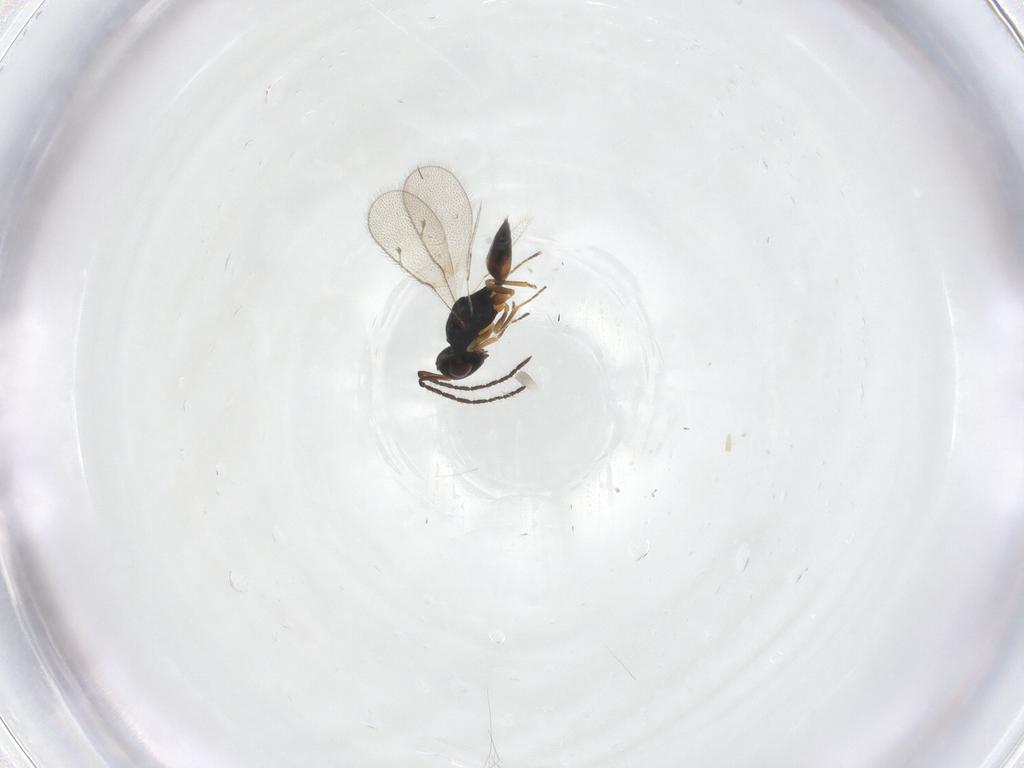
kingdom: Animalia
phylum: Arthropoda
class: Insecta
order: Hymenoptera
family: Pteromalidae
